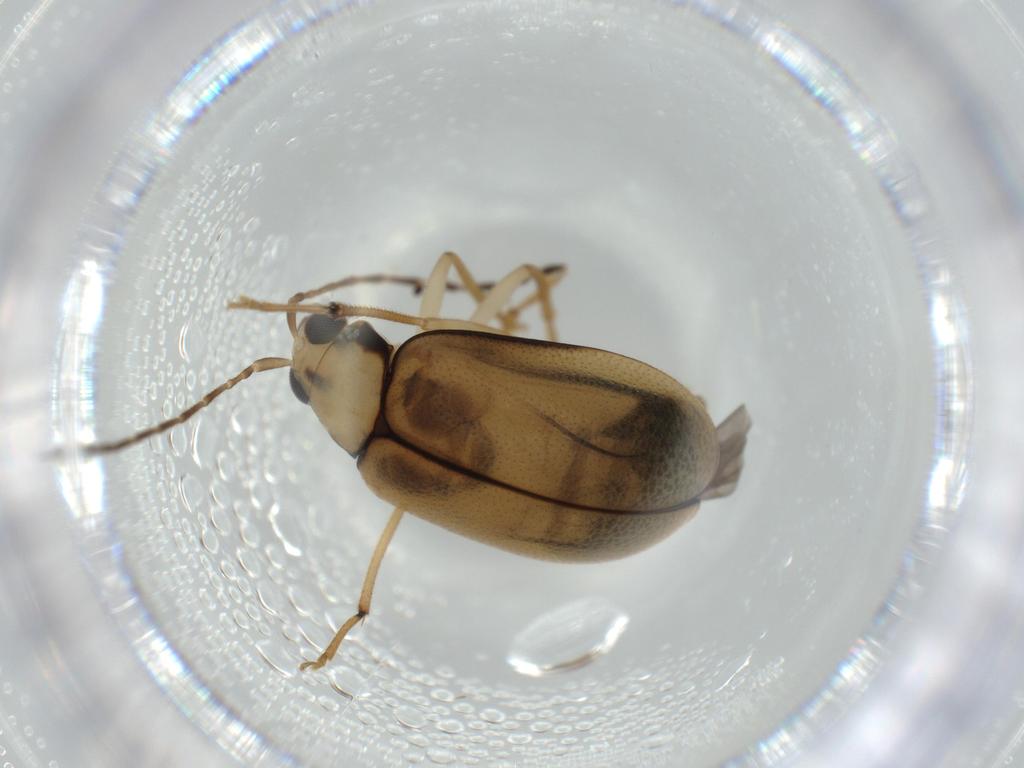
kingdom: Animalia
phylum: Arthropoda
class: Insecta
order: Coleoptera
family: Chrysomelidae
